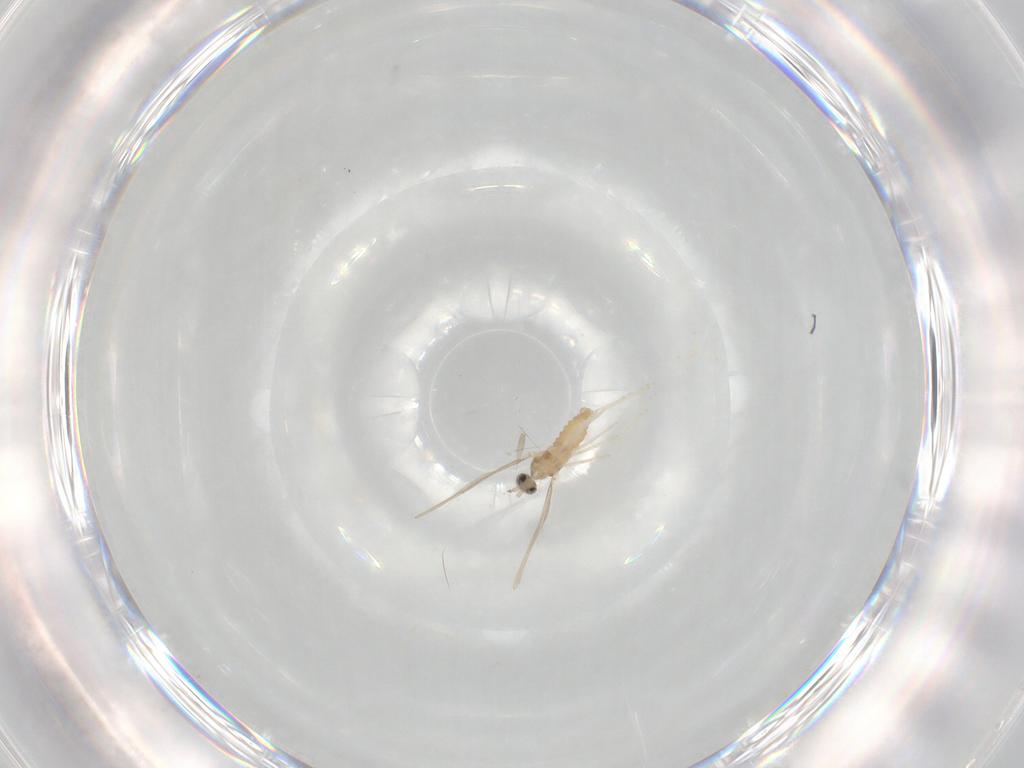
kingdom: Animalia
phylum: Arthropoda
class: Insecta
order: Diptera
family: Cecidomyiidae
